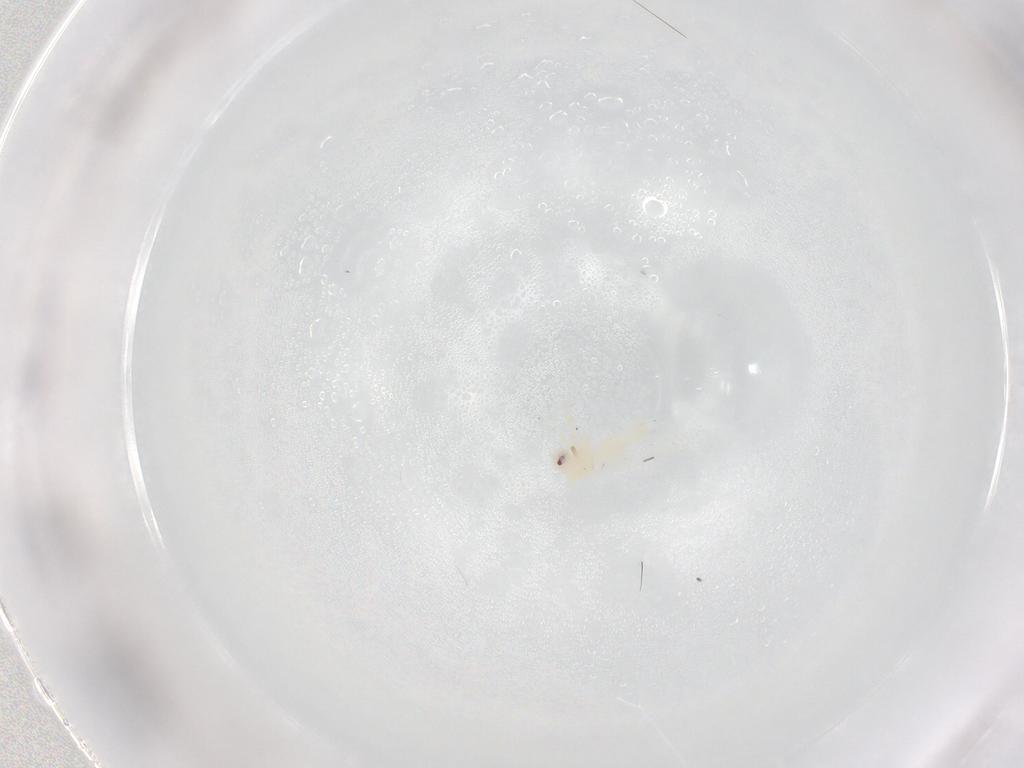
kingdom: Animalia
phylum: Arthropoda
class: Insecta
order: Hemiptera
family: Aleyrodidae
